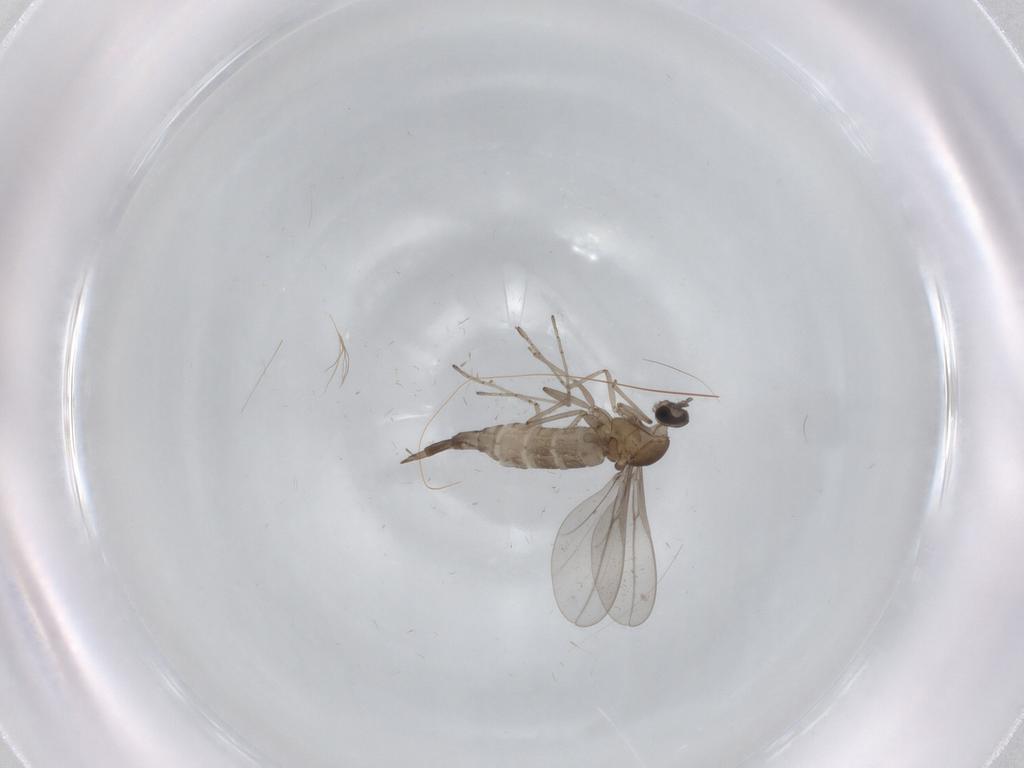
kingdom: Animalia
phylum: Arthropoda
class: Insecta
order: Diptera
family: Cecidomyiidae
